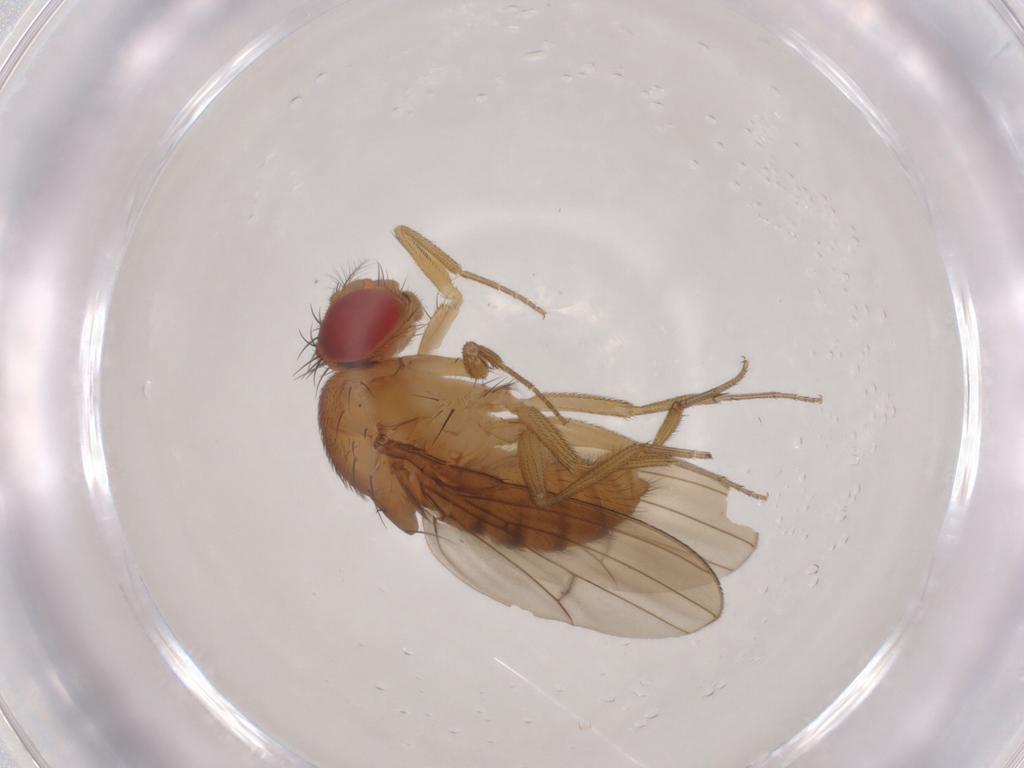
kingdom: Animalia
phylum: Arthropoda
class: Insecta
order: Diptera
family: Drosophilidae
